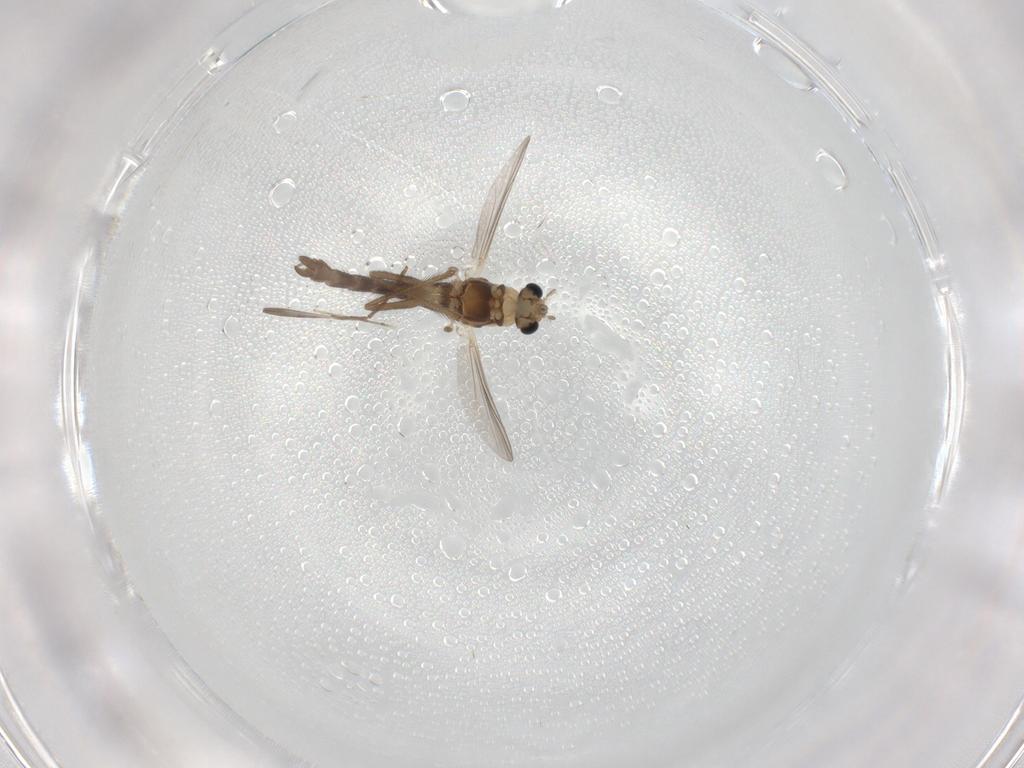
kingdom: Animalia
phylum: Arthropoda
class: Insecta
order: Diptera
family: Chironomidae
